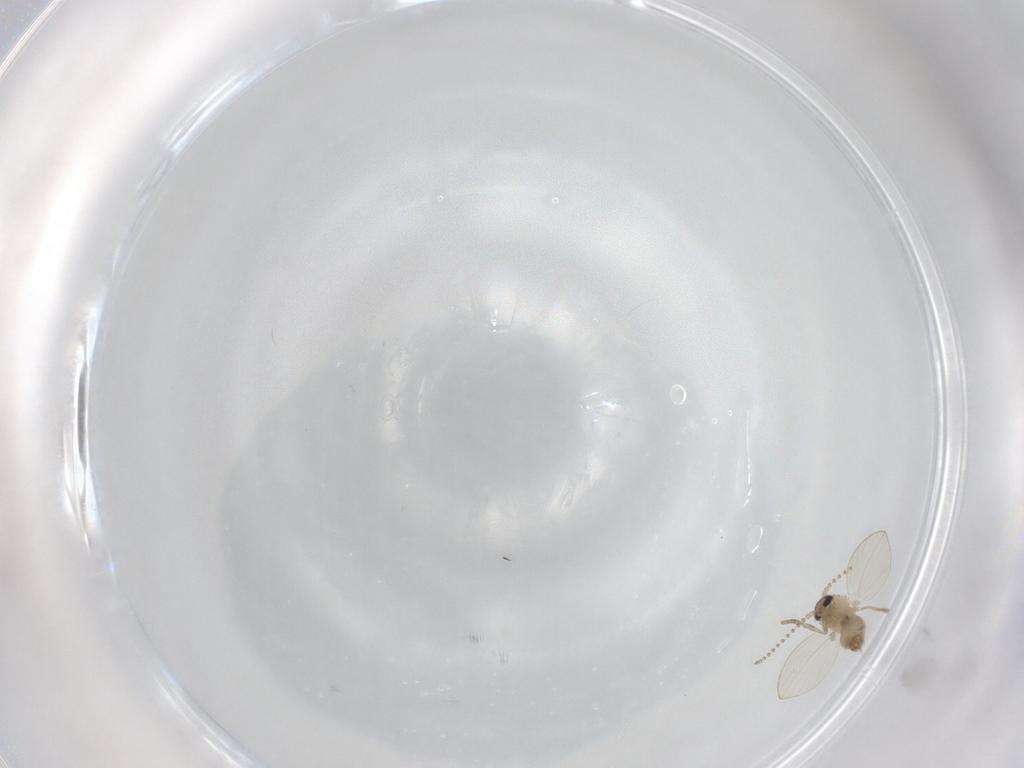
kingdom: Animalia
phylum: Arthropoda
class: Insecta
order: Diptera
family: Psychodidae
